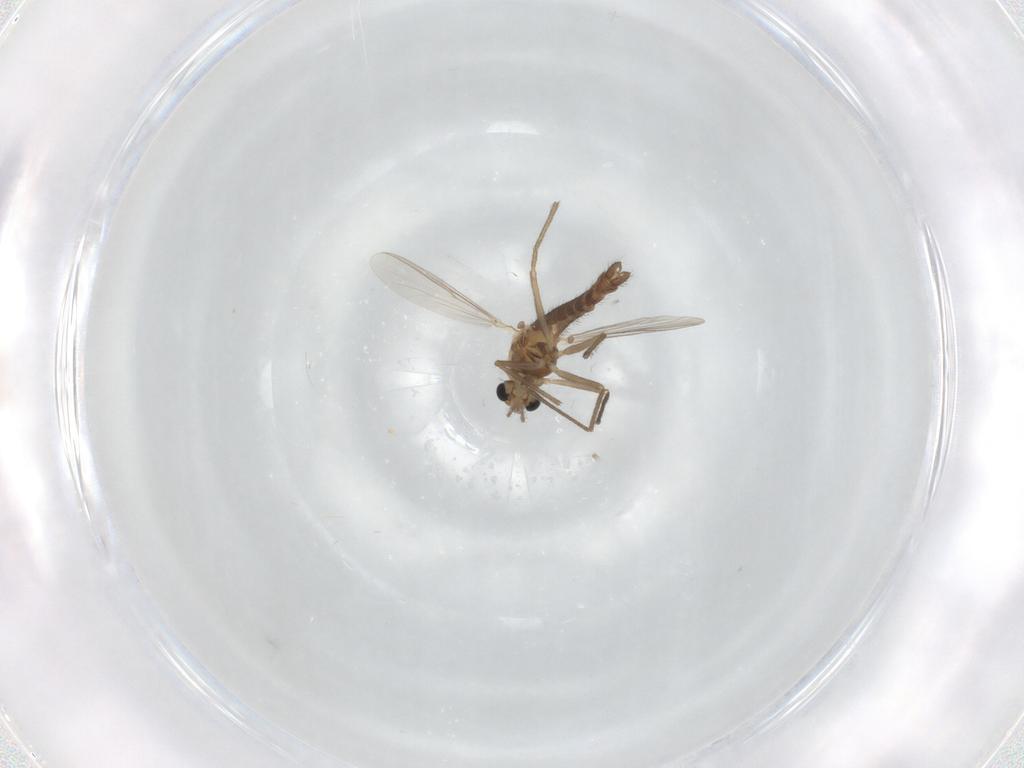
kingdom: Animalia
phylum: Arthropoda
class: Insecta
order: Diptera
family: Chironomidae
